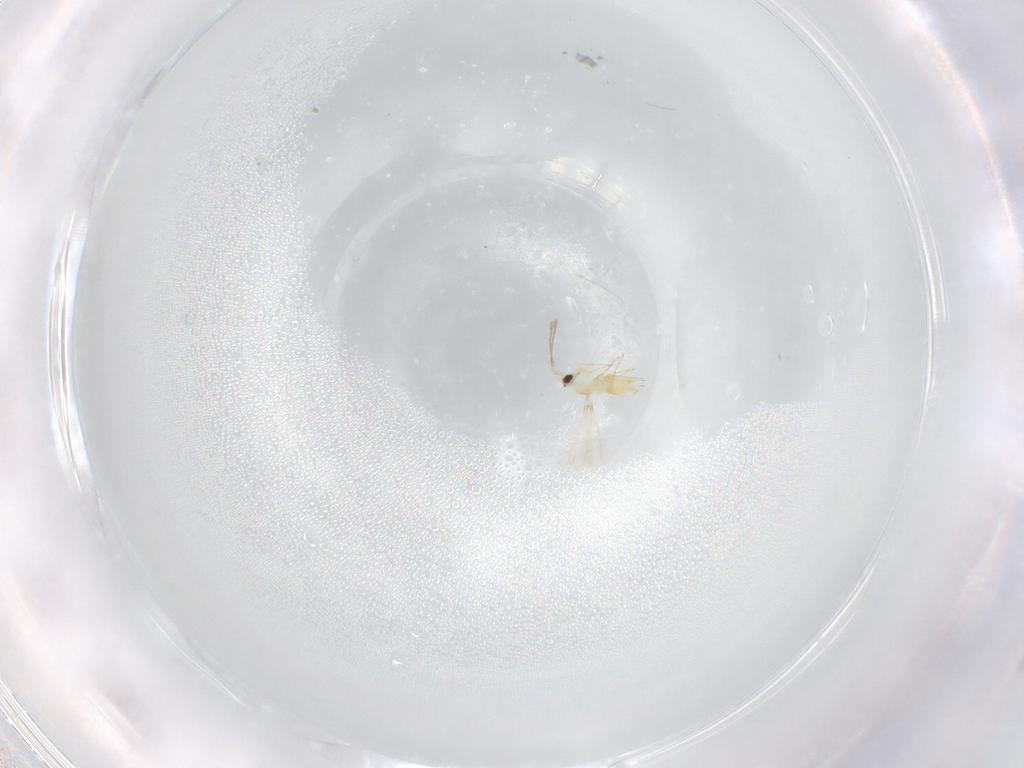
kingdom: Animalia
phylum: Arthropoda
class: Insecta
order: Hymenoptera
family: Mymaridae
